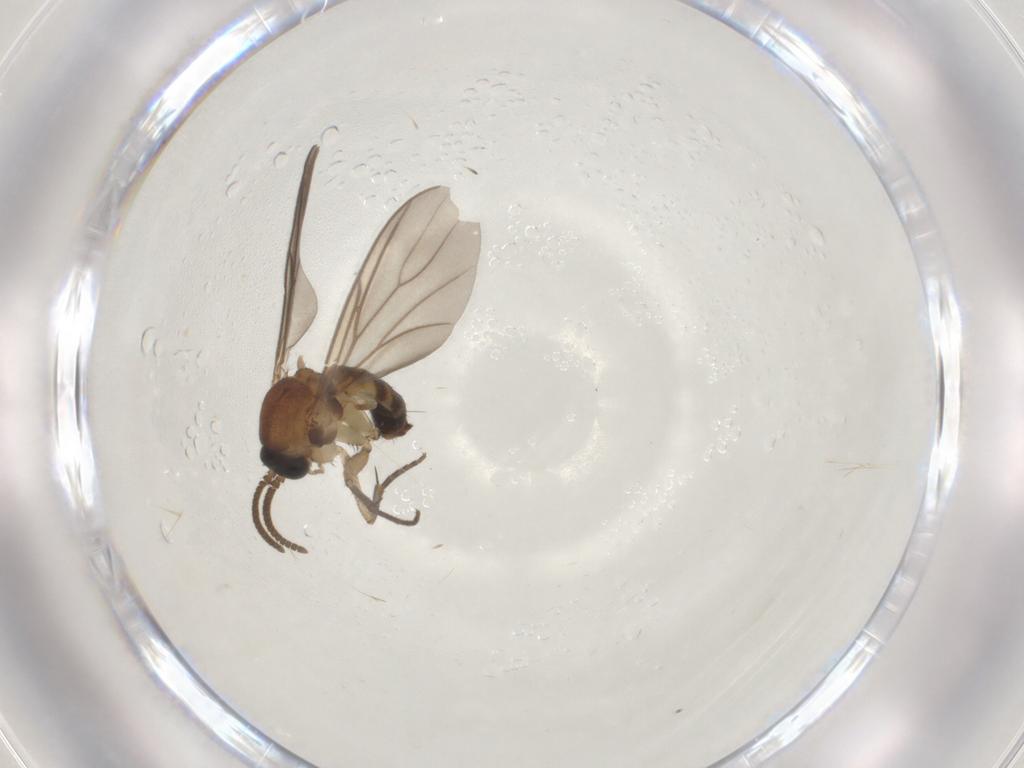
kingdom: Animalia
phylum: Arthropoda
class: Insecta
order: Diptera
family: Mycetophilidae
